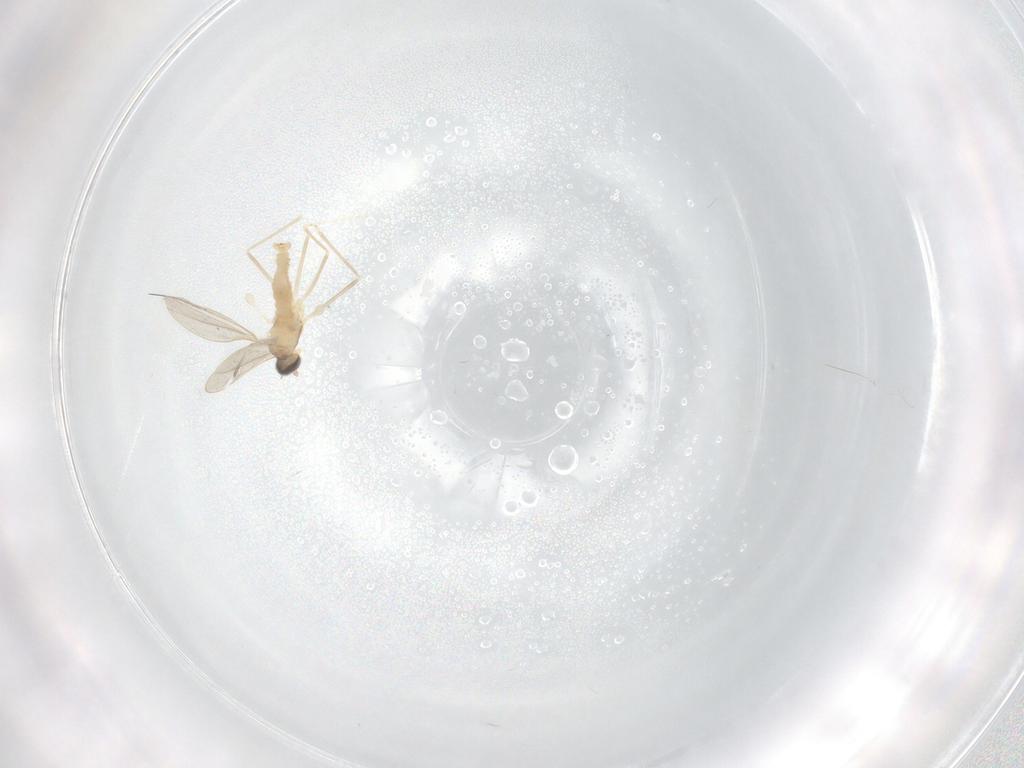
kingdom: Animalia
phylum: Arthropoda
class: Insecta
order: Diptera
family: Cecidomyiidae
